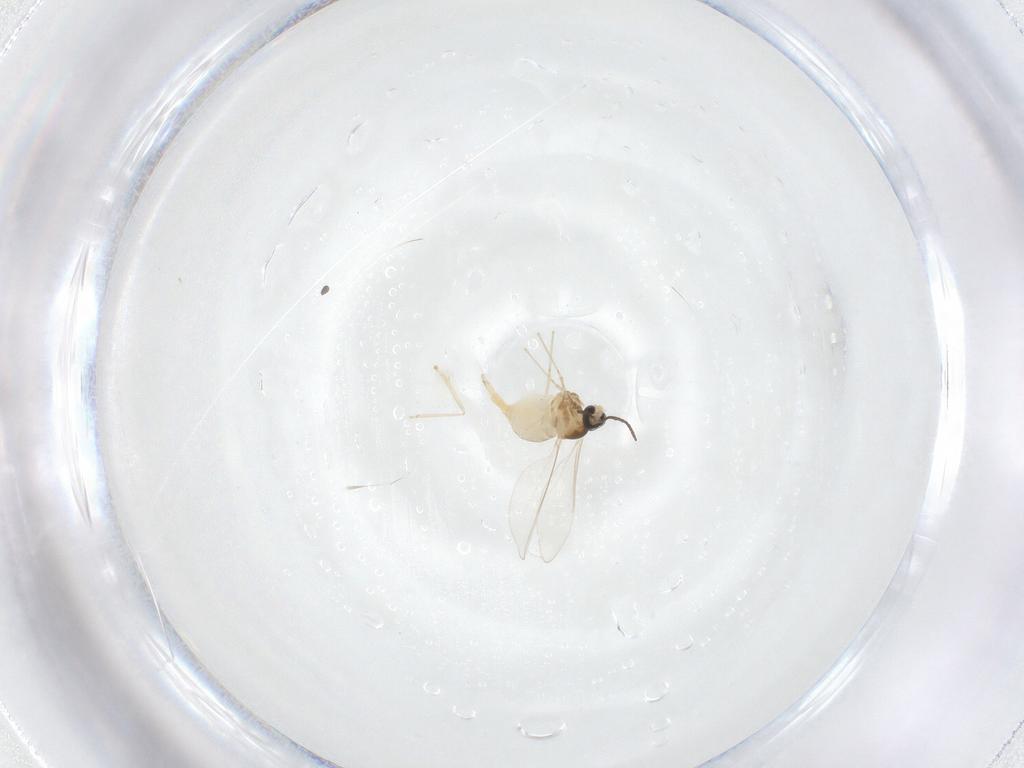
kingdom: Animalia
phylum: Arthropoda
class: Insecta
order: Diptera
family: Cecidomyiidae
